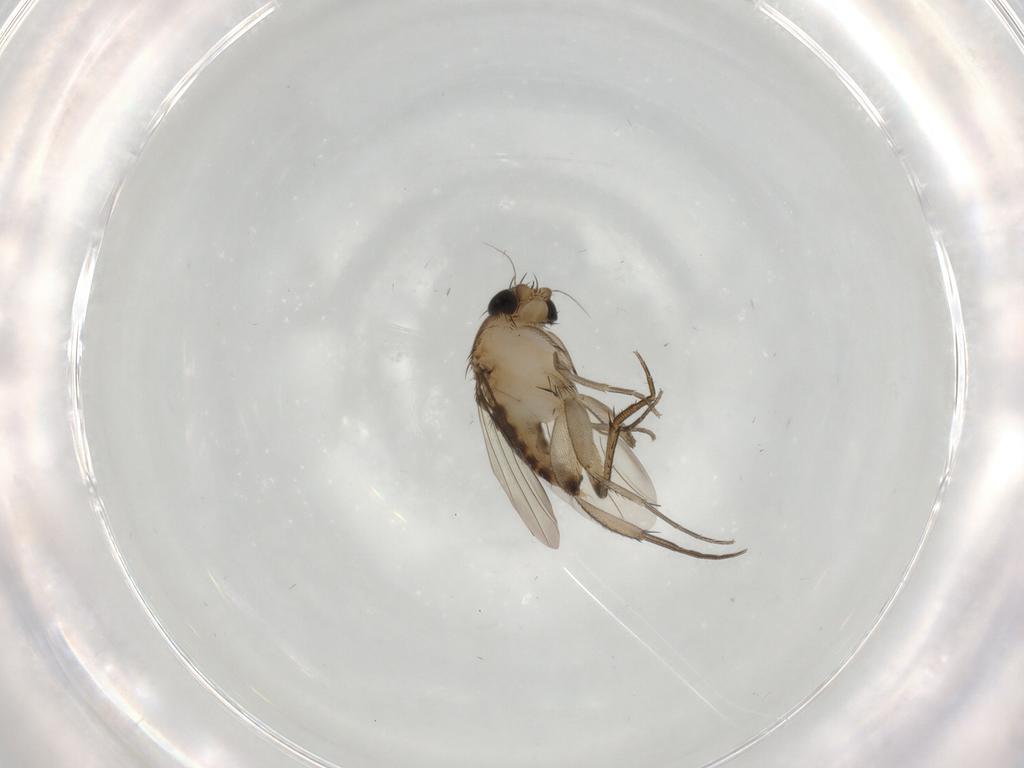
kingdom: Animalia
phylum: Arthropoda
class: Insecta
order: Diptera
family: Phoridae
